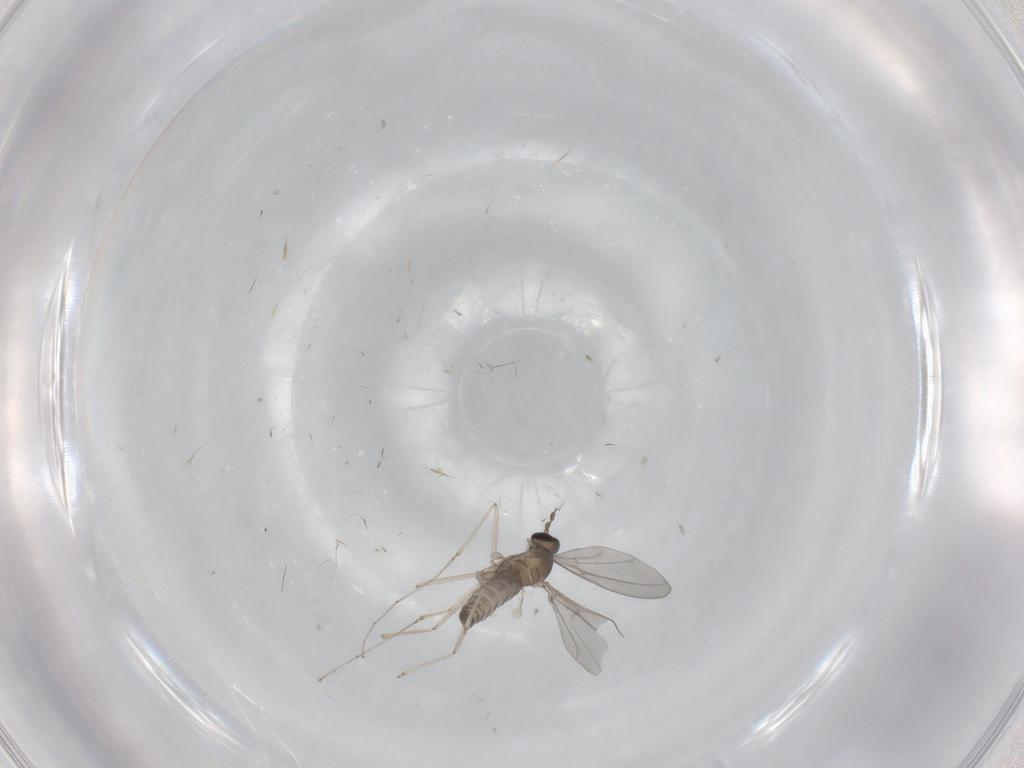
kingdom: Animalia
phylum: Arthropoda
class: Insecta
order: Diptera
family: Cecidomyiidae
